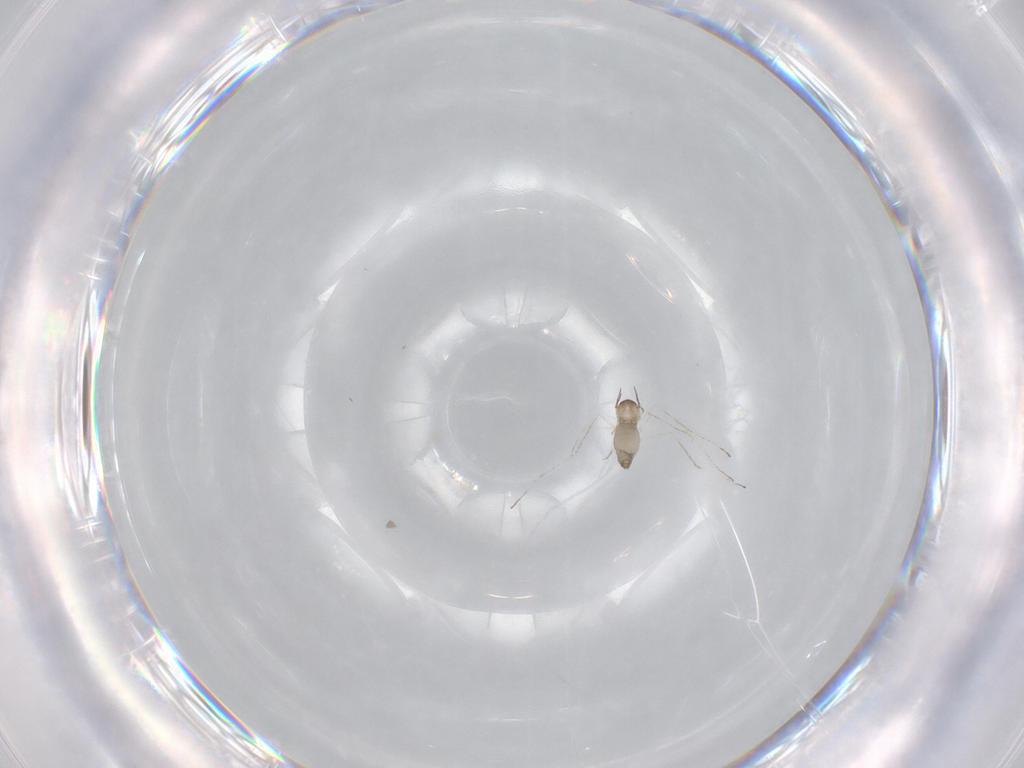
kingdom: Animalia
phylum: Arthropoda
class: Insecta
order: Diptera
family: Cecidomyiidae
